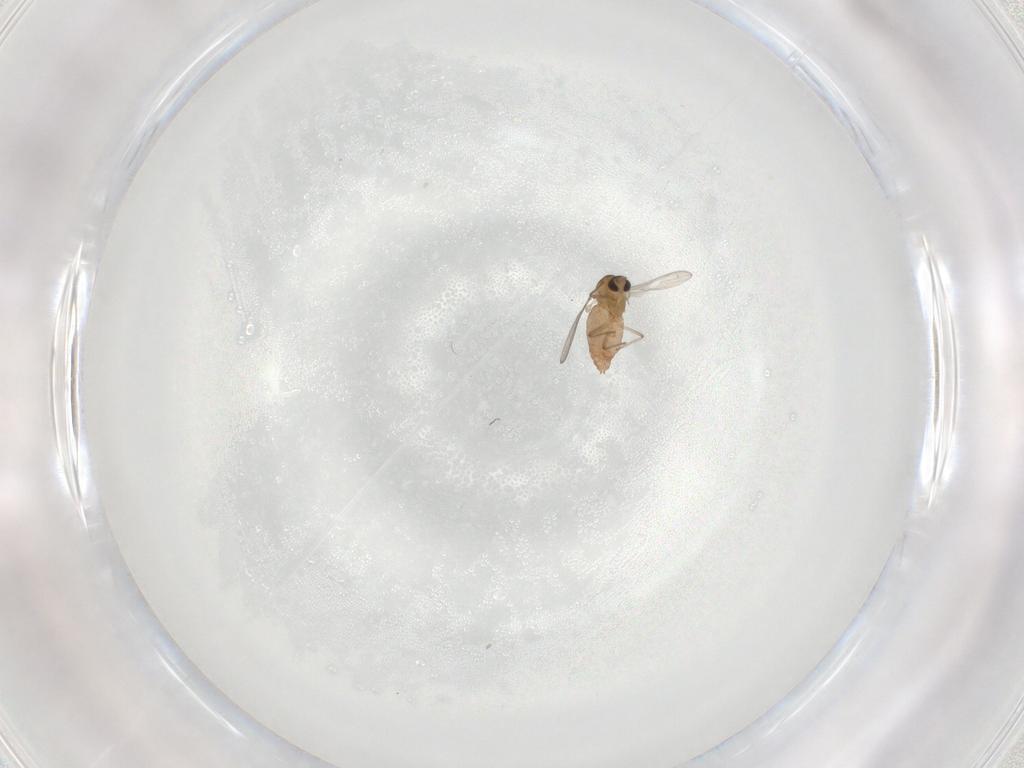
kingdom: Animalia
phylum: Arthropoda
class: Insecta
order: Diptera
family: Chironomidae
